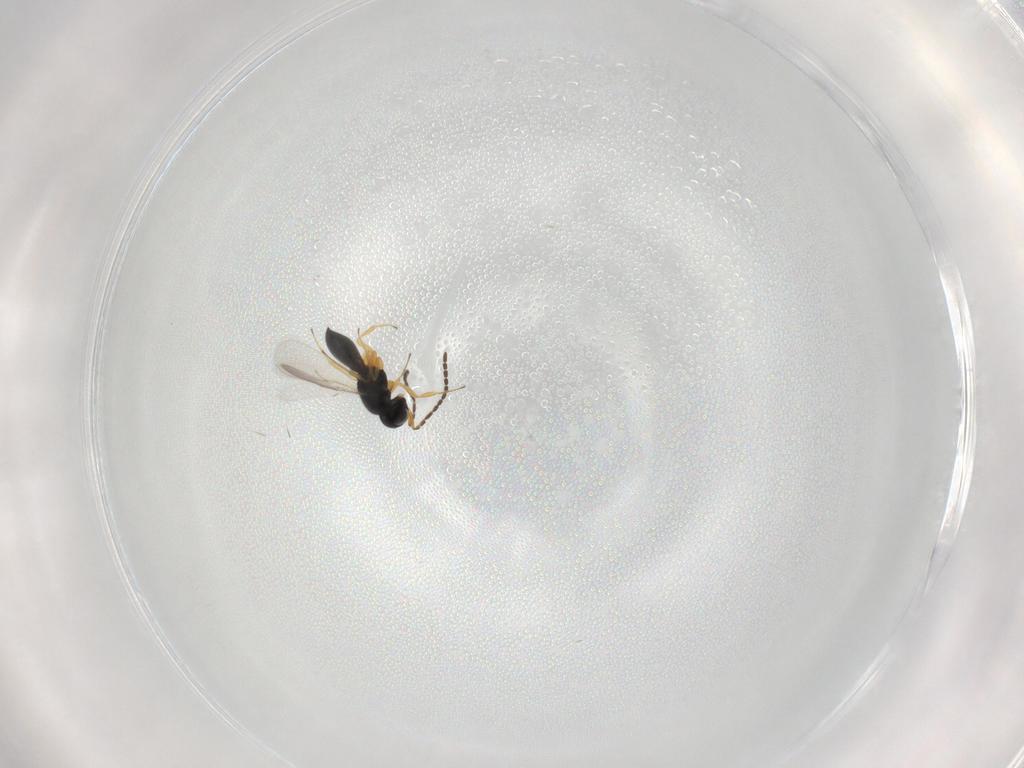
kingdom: Animalia
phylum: Arthropoda
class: Insecta
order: Hymenoptera
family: Scelionidae
